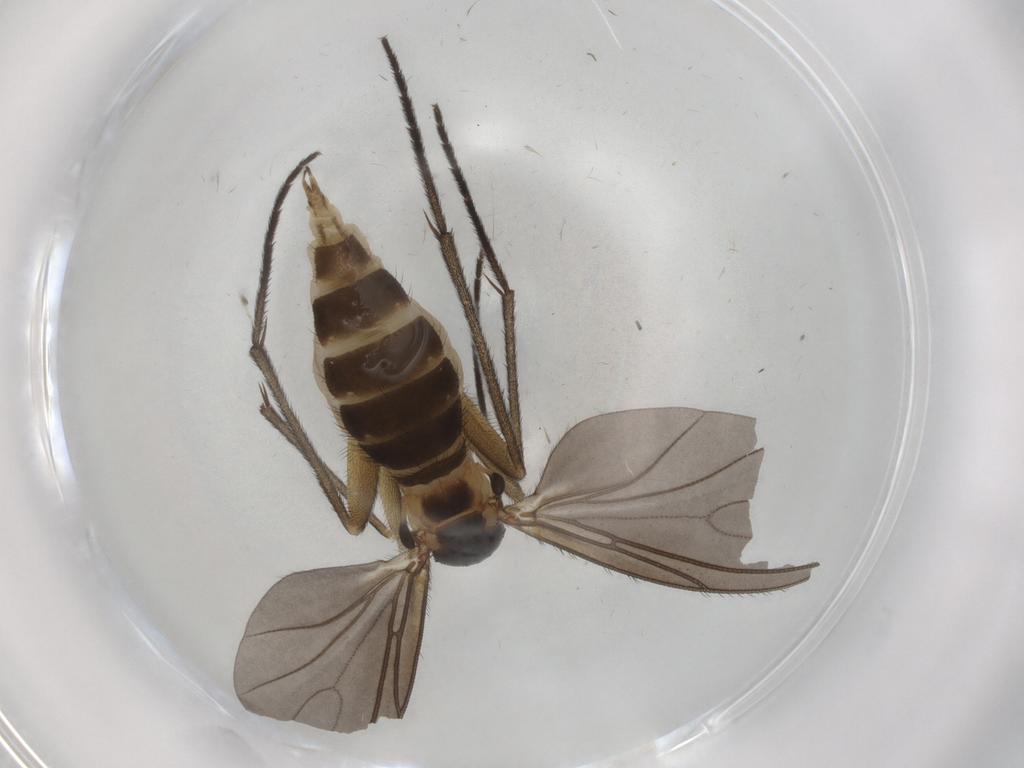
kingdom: Animalia
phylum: Arthropoda
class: Insecta
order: Diptera
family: Sciaridae
